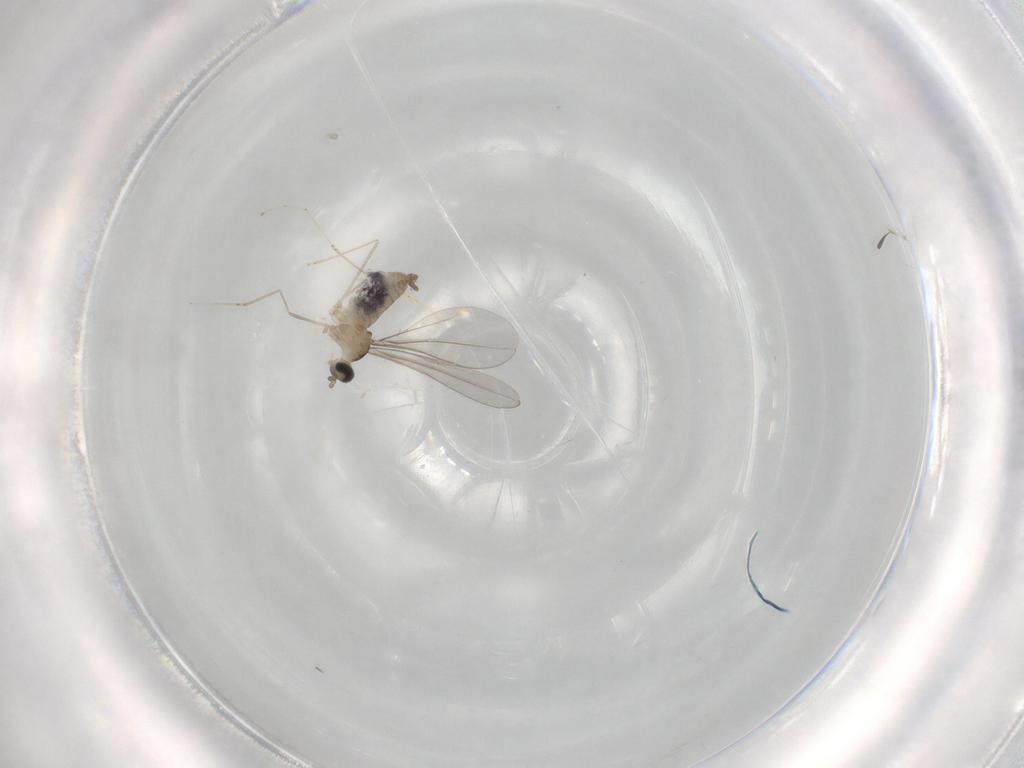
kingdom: Animalia
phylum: Arthropoda
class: Insecta
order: Diptera
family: Cecidomyiidae
